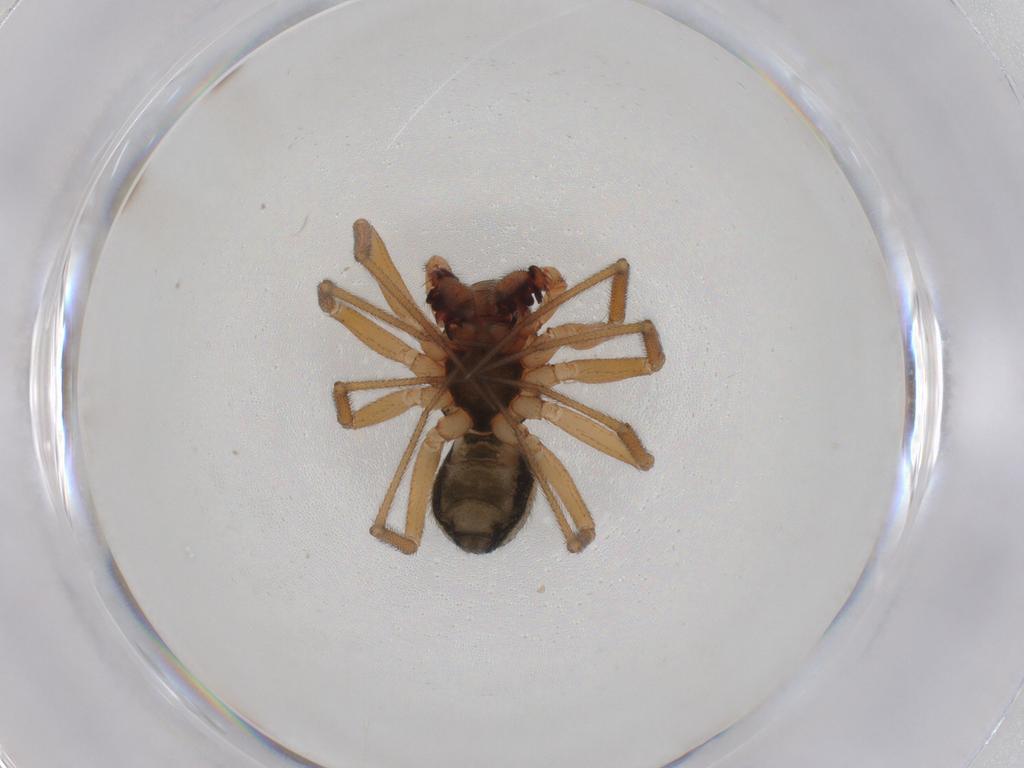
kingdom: Animalia
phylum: Arthropoda
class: Arachnida
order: Araneae
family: Linyphiidae
